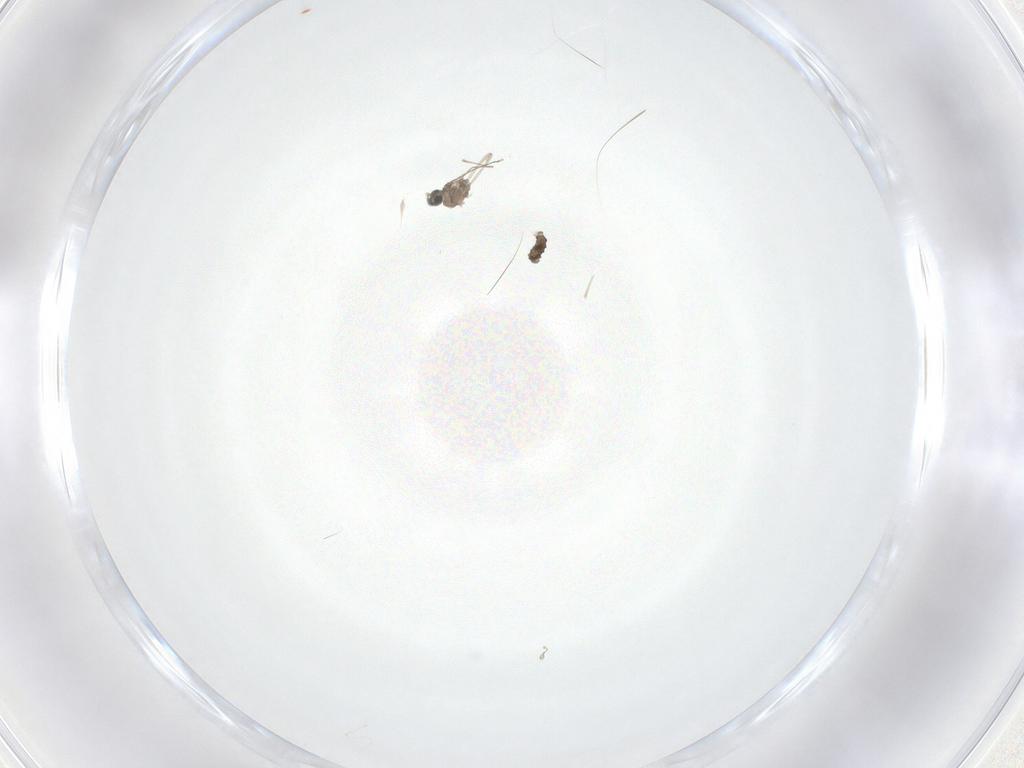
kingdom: Animalia
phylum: Arthropoda
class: Insecta
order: Diptera
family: Cecidomyiidae
